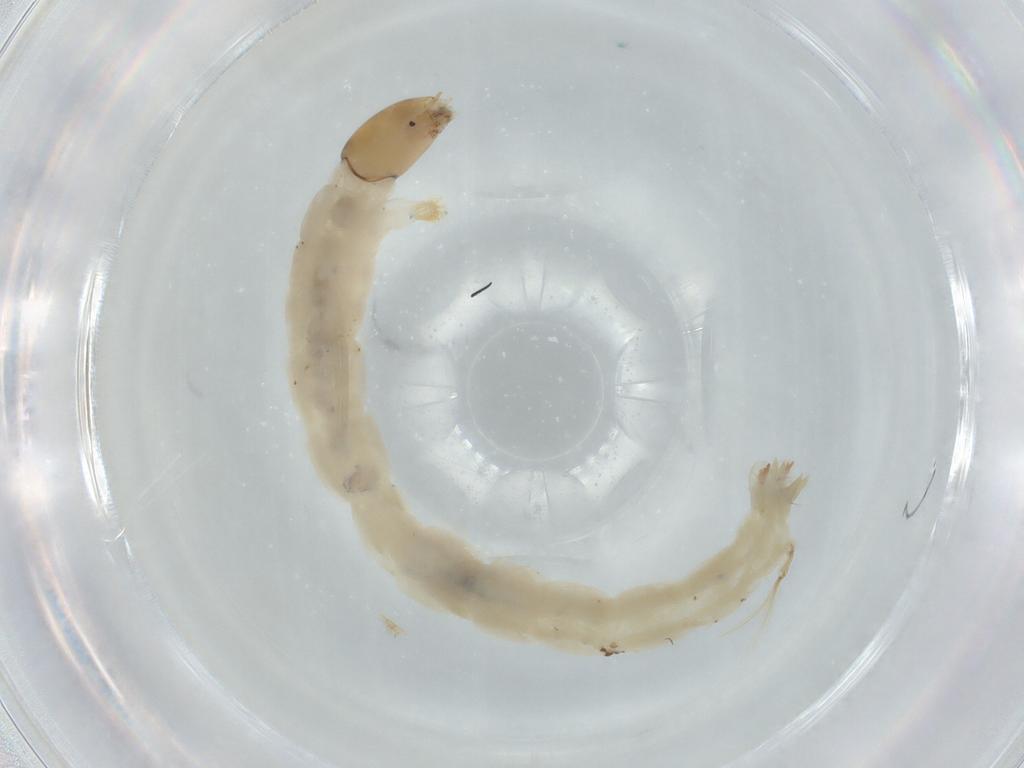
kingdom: Animalia
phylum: Arthropoda
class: Insecta
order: Diptera
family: Chironomidae
